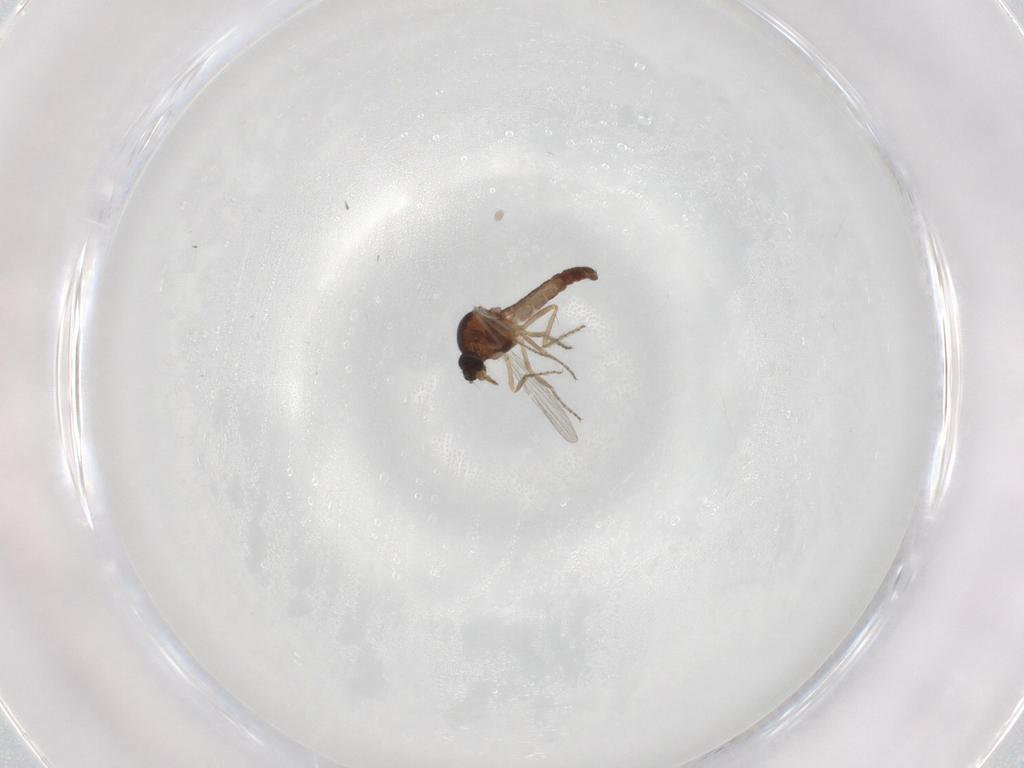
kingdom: Animalia
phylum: Arthropoda
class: Insecta
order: Diptera
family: Ceratopogonidae
